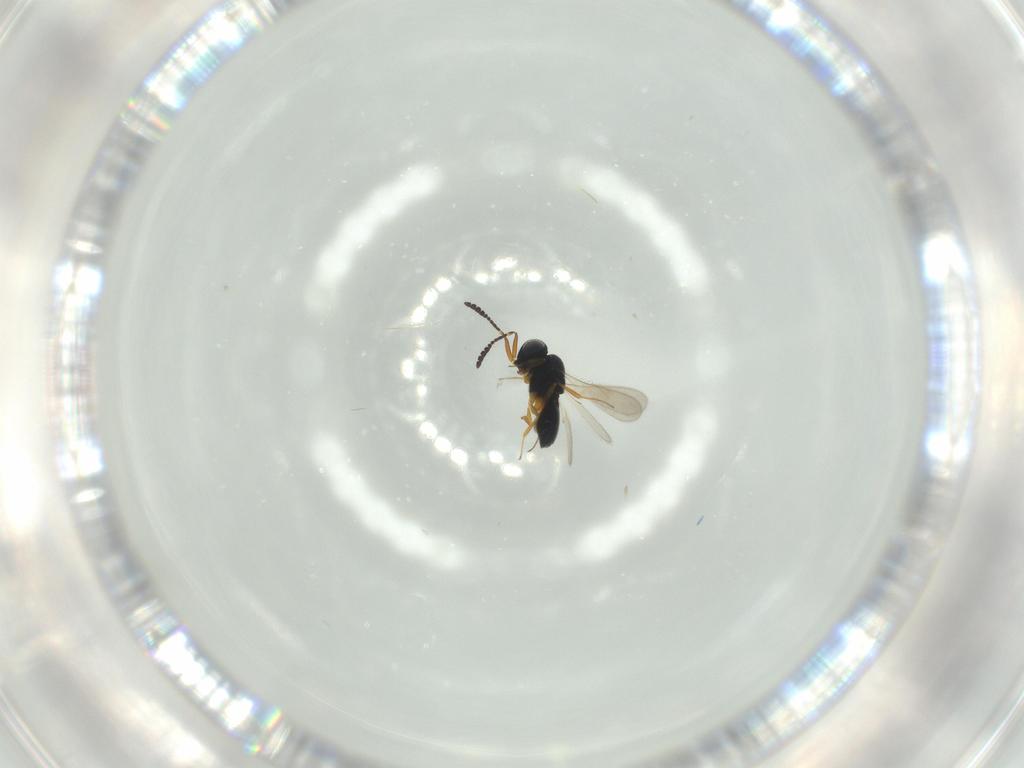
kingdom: Animalia
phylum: Arthropoda
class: Insecta
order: Hymenoptera
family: Scelionidae
